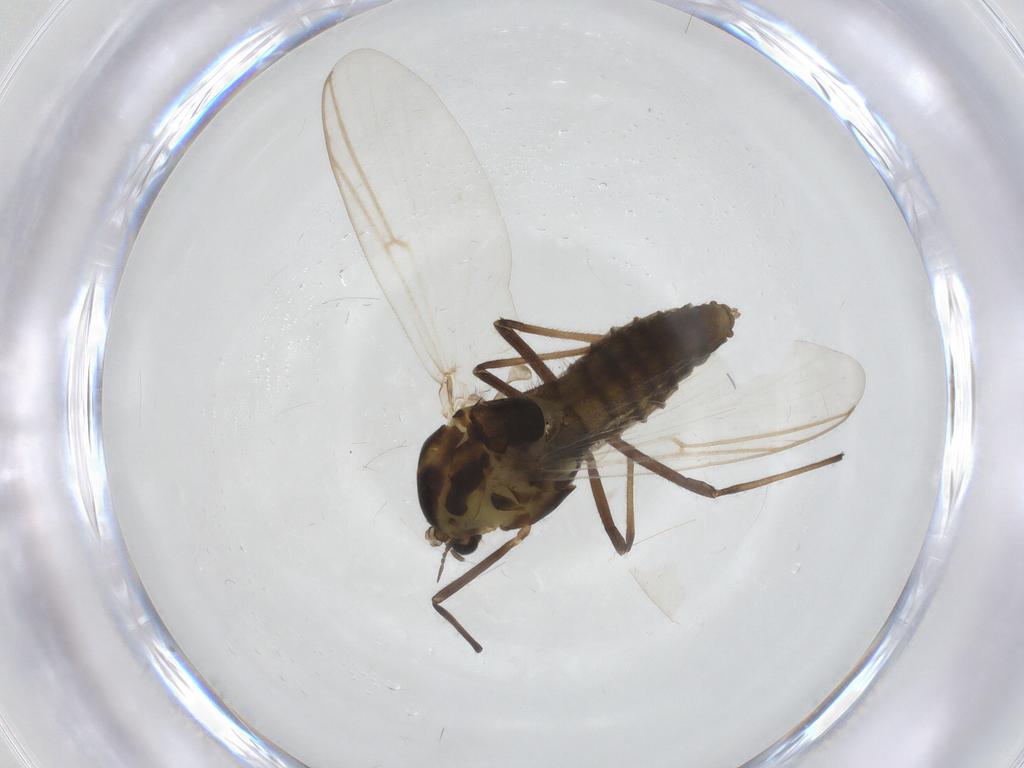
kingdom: Animalia
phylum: Arthropoda
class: Insecta
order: Diptera
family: Chironomidae
